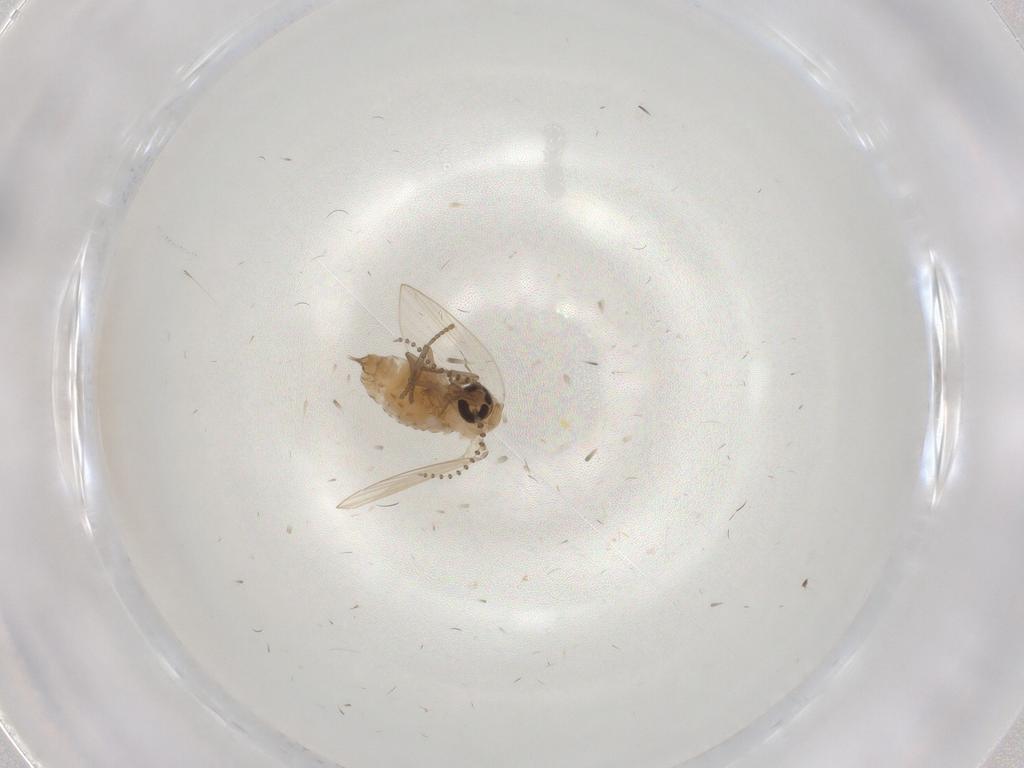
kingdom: Animalia
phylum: Arthropoda
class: Insecta
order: Diptera
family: Psychodidae
